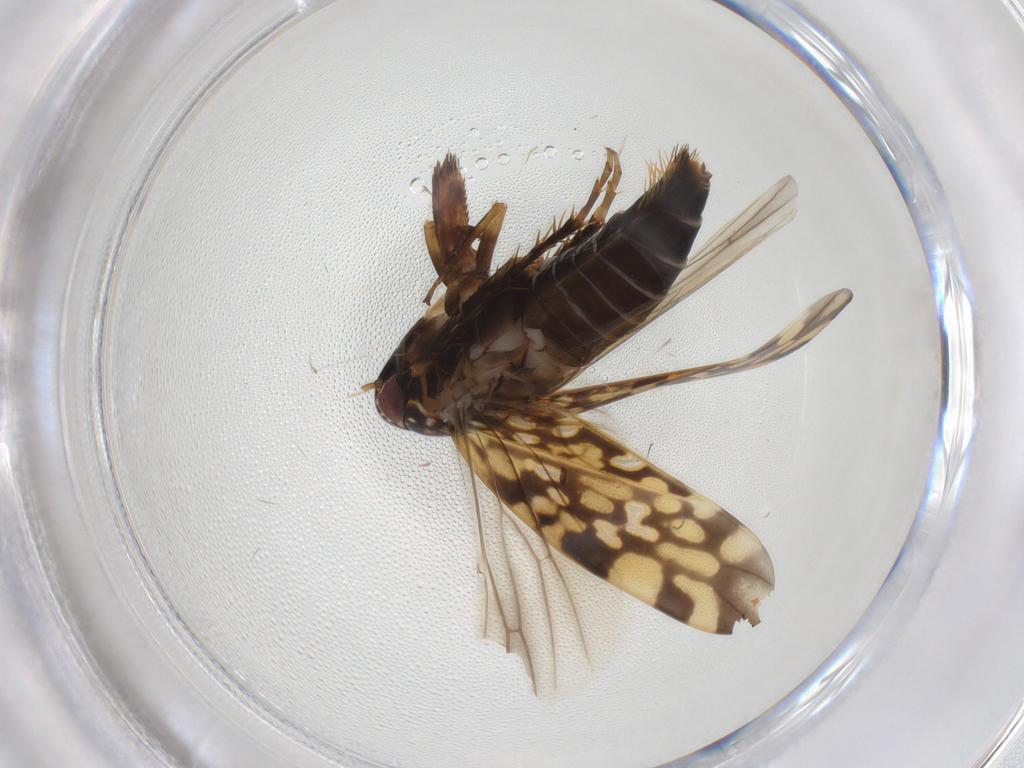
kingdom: Animalia
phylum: Arthropoda
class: Insecta
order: Hemiptera
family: Cicadellidae
